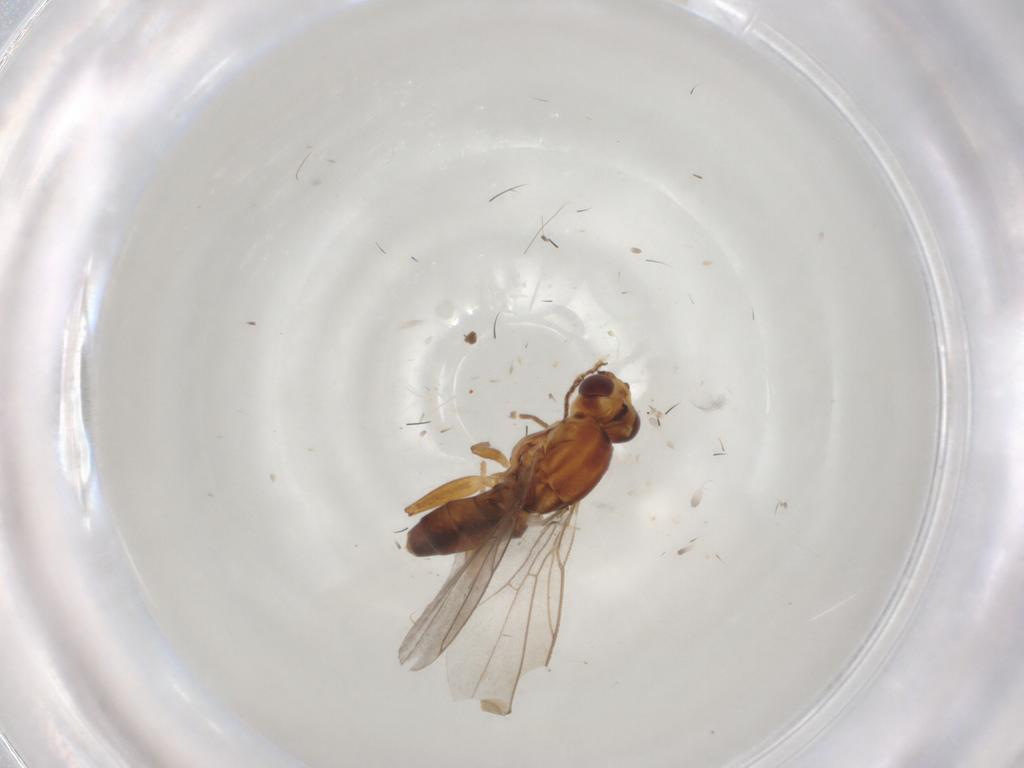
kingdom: Animalia
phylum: Arthropoda
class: Insecta
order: Diptera
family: Chloropidae
